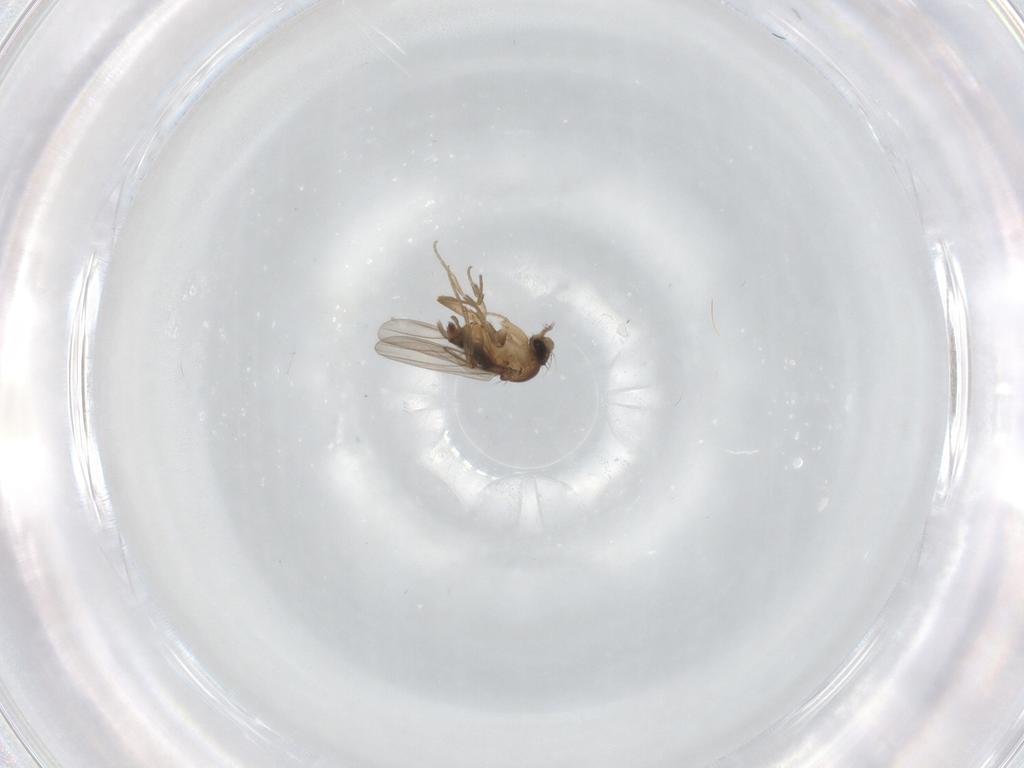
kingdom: Animalia
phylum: Arthropoda
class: Insecta
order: Diptera
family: Ceratopogonidae
